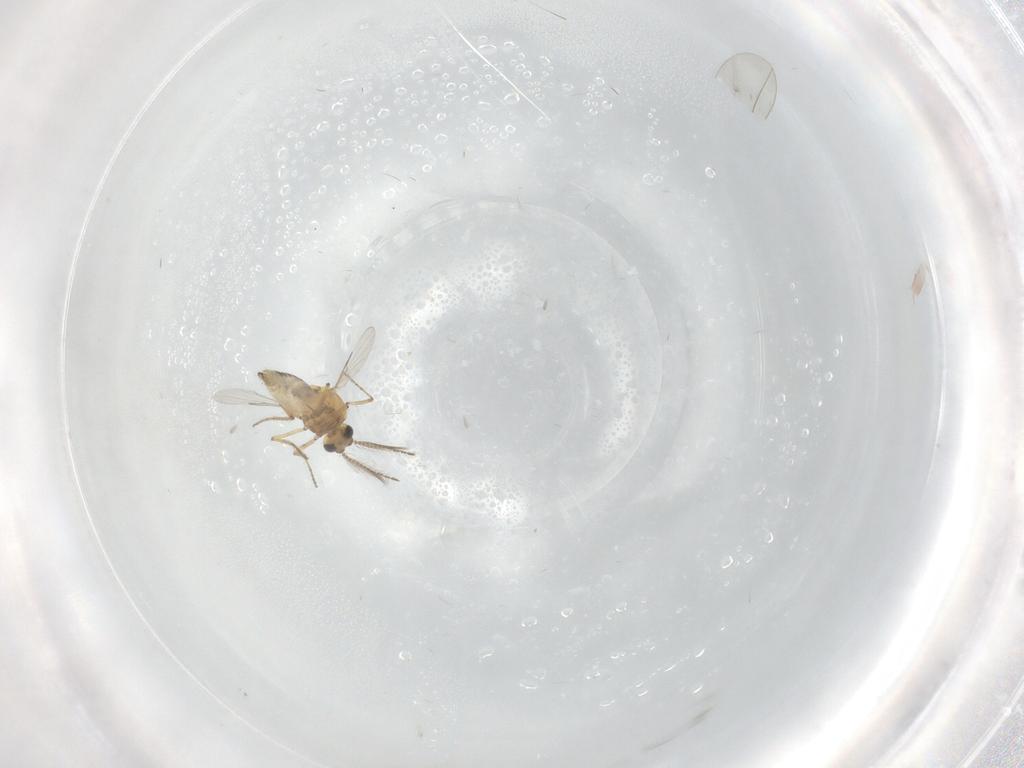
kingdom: Animalia
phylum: Arthropoda
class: Insecta
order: Diptera
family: Ceratopogonidae
